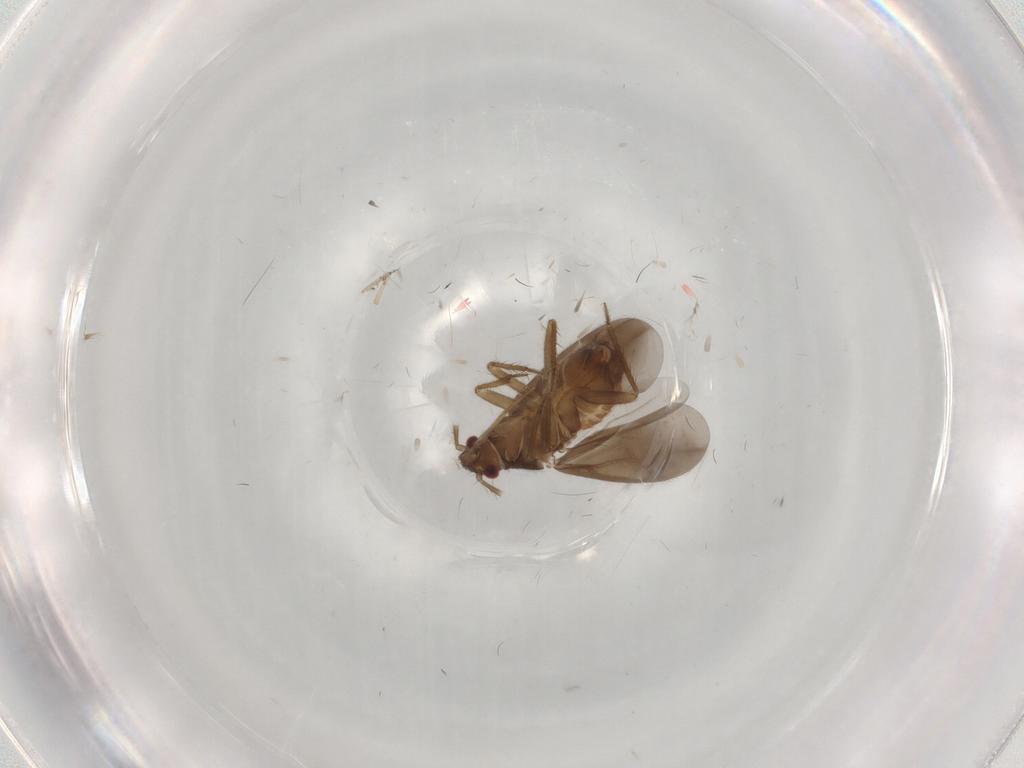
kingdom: Animalia
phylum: Arthropoda
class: Insecta
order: Hemiptera
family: Ceratocombidae
